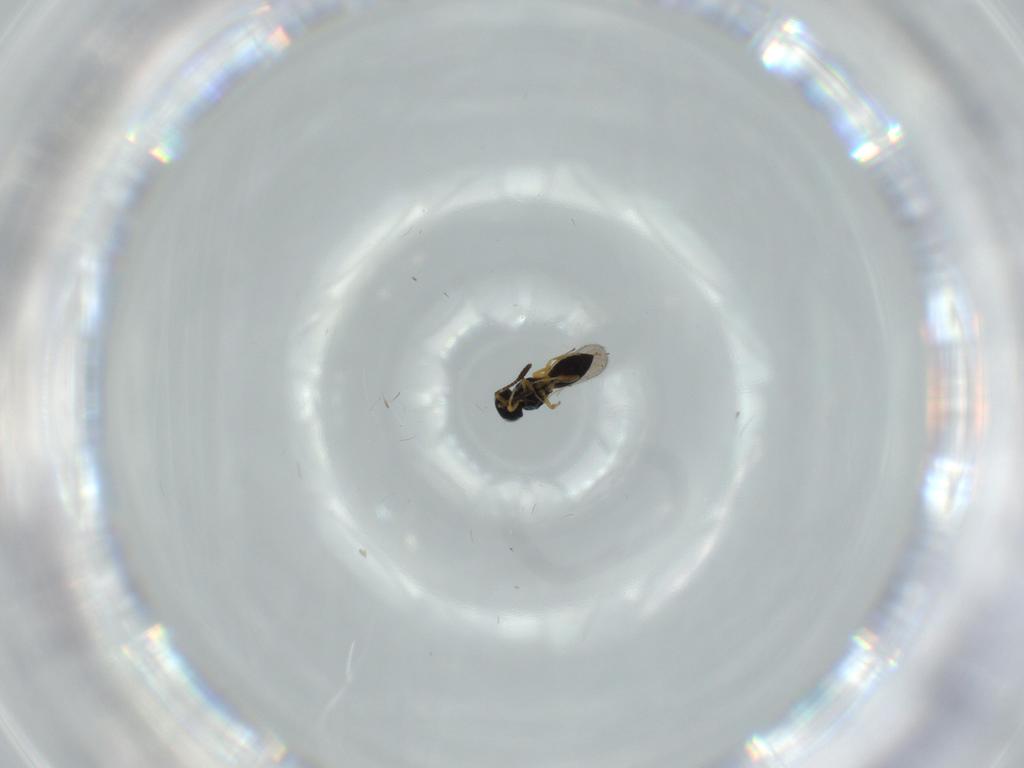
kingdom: Animalia
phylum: Arthropoda
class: Insecta
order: Hymenoptera
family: Scelionidae
